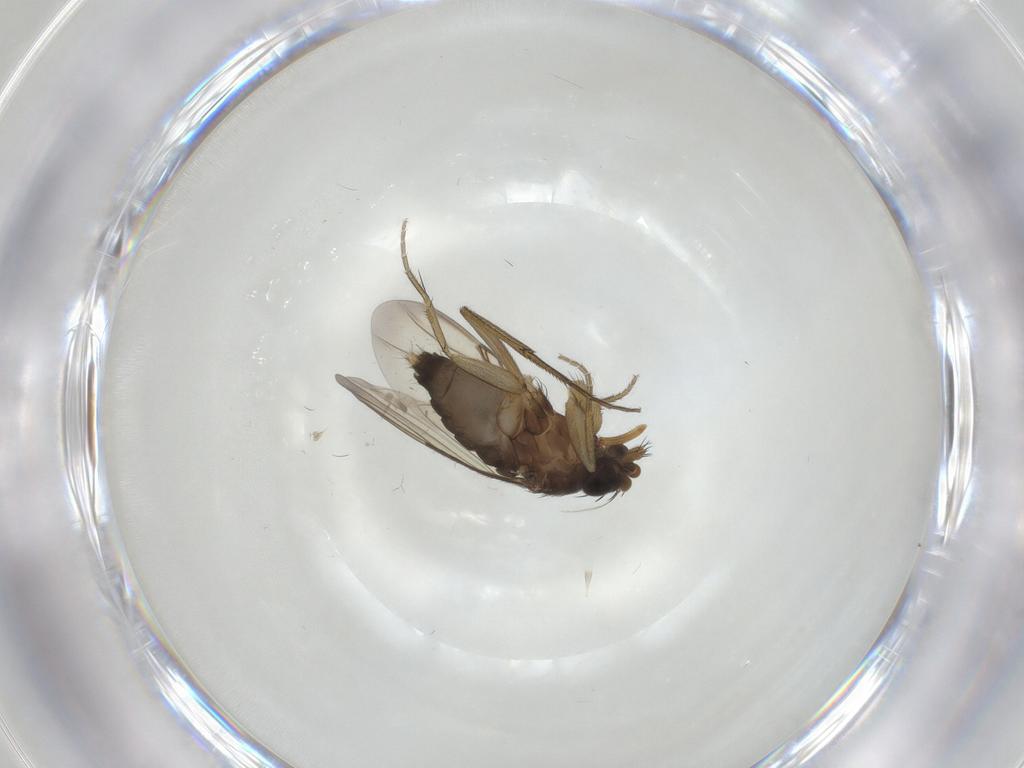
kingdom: Animalia
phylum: Arthropoda
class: Insecta
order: Diptera
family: Phoridae
